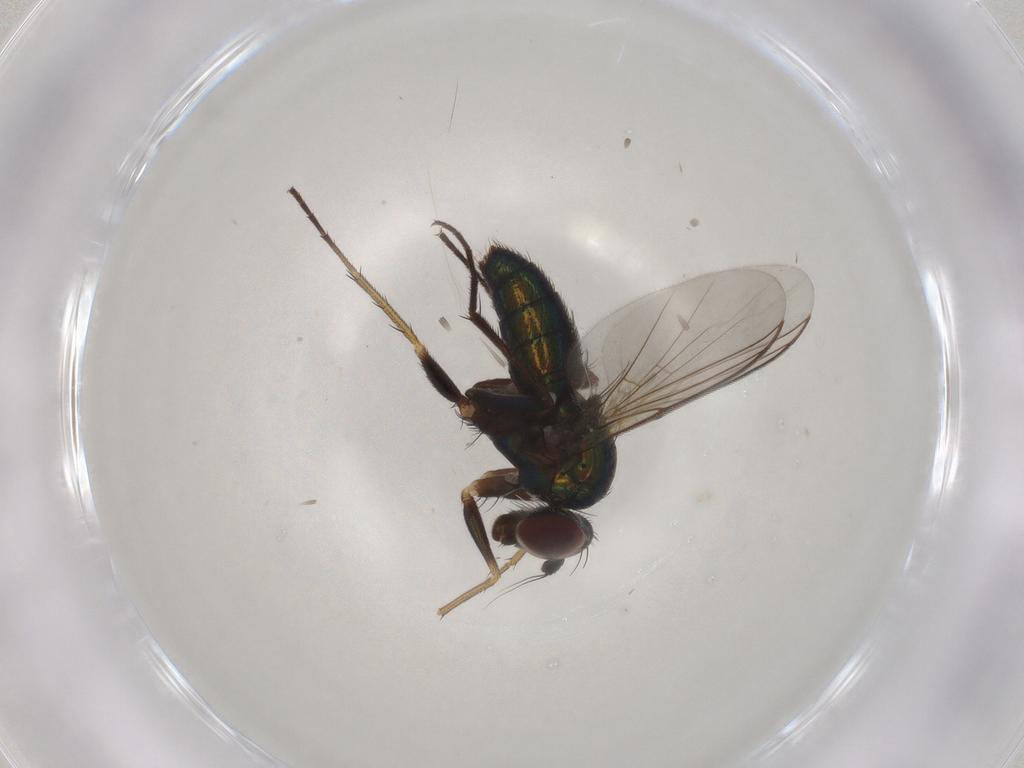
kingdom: Animalia
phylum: Arthropoda
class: Insecta
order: Diptera
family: Dolichopodidae
